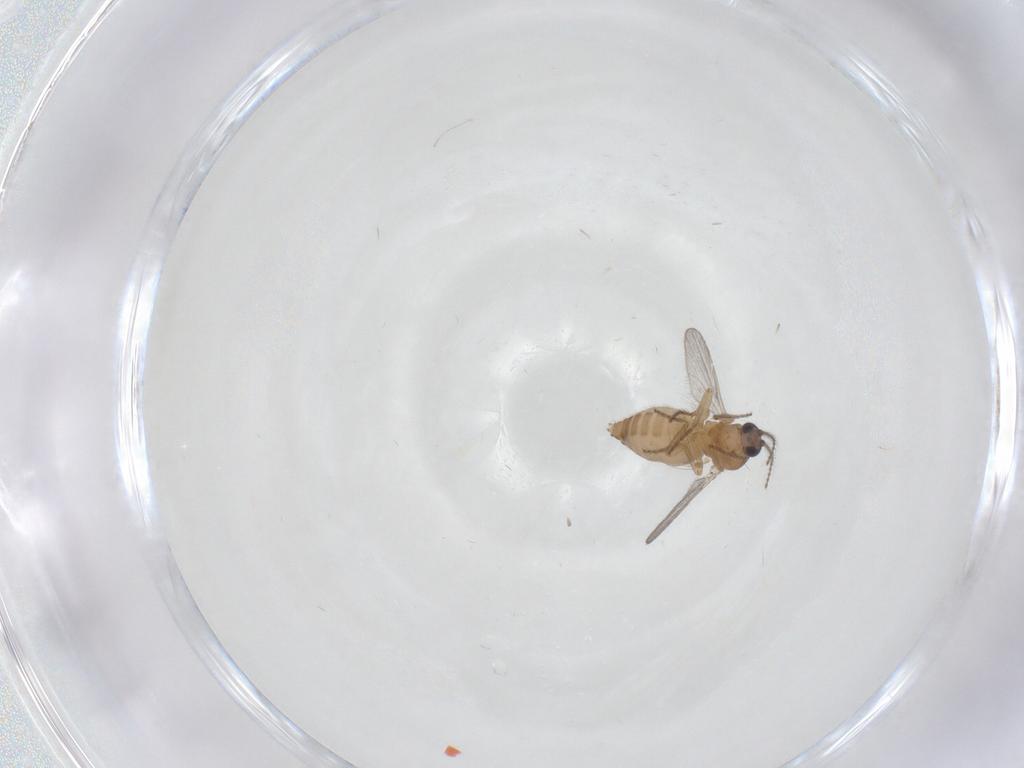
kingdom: Animalia
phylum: Arthropoda
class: Insecta
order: Diptera
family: Ceratopogonidae
